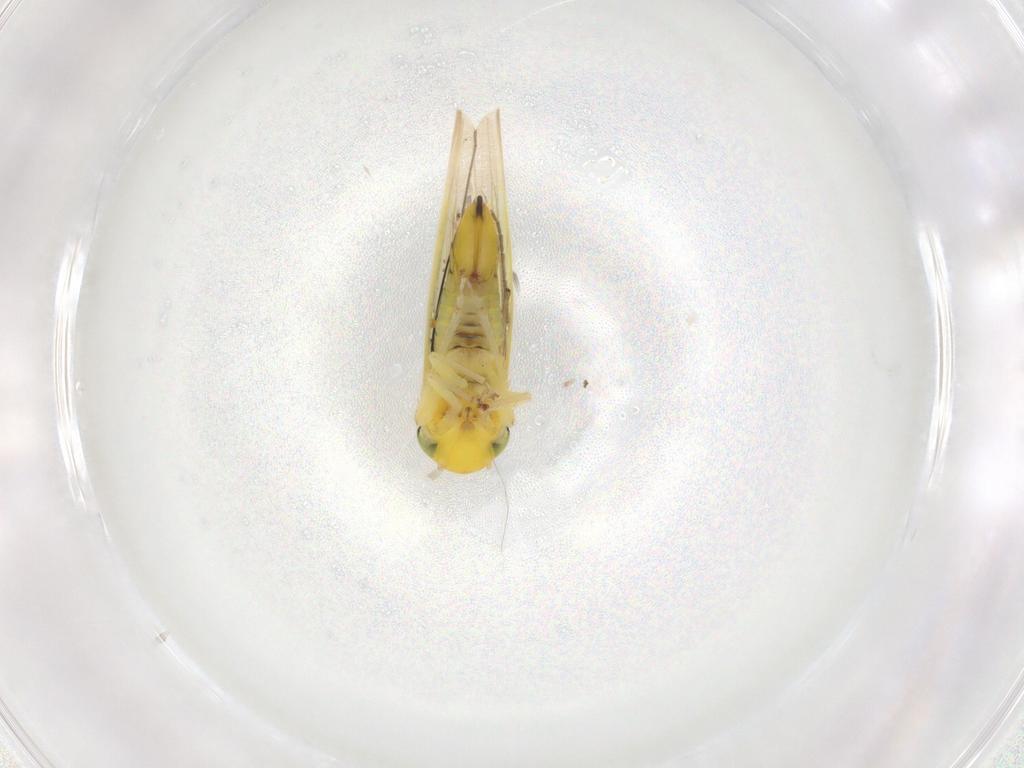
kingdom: Animalia
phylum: Arthropoda
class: Insecta
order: Hemiptera
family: Cicadellidae
